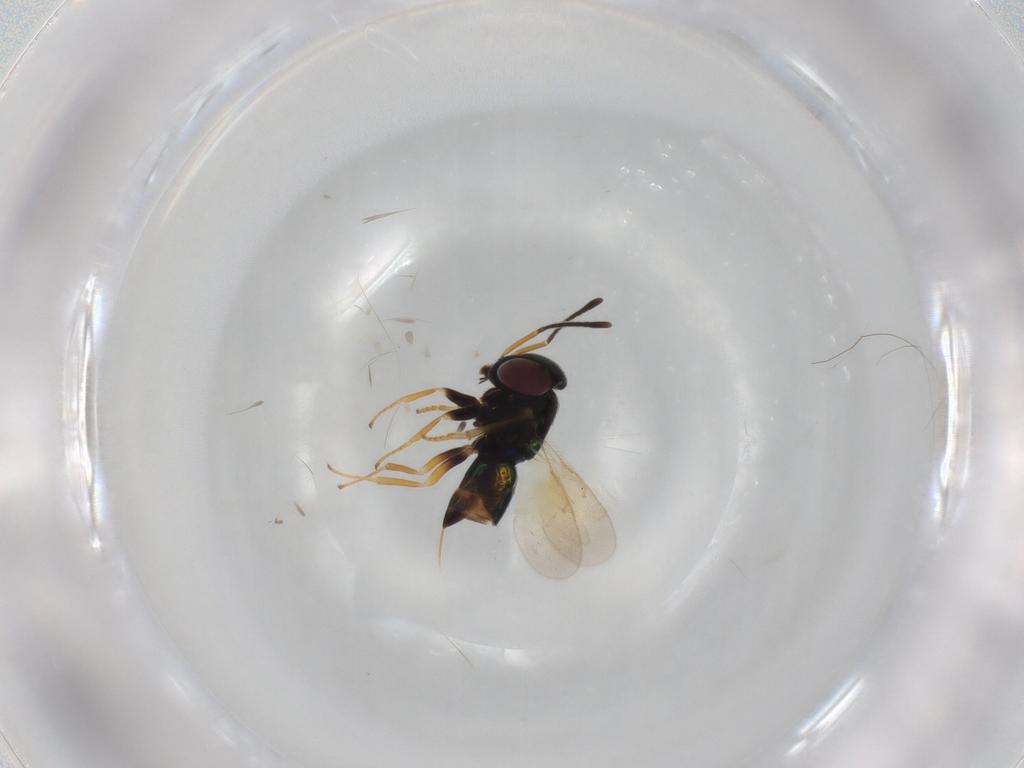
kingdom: Animalia
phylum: Arthropoda
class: Insecta
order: Hymenoptera
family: Encyrtidae
